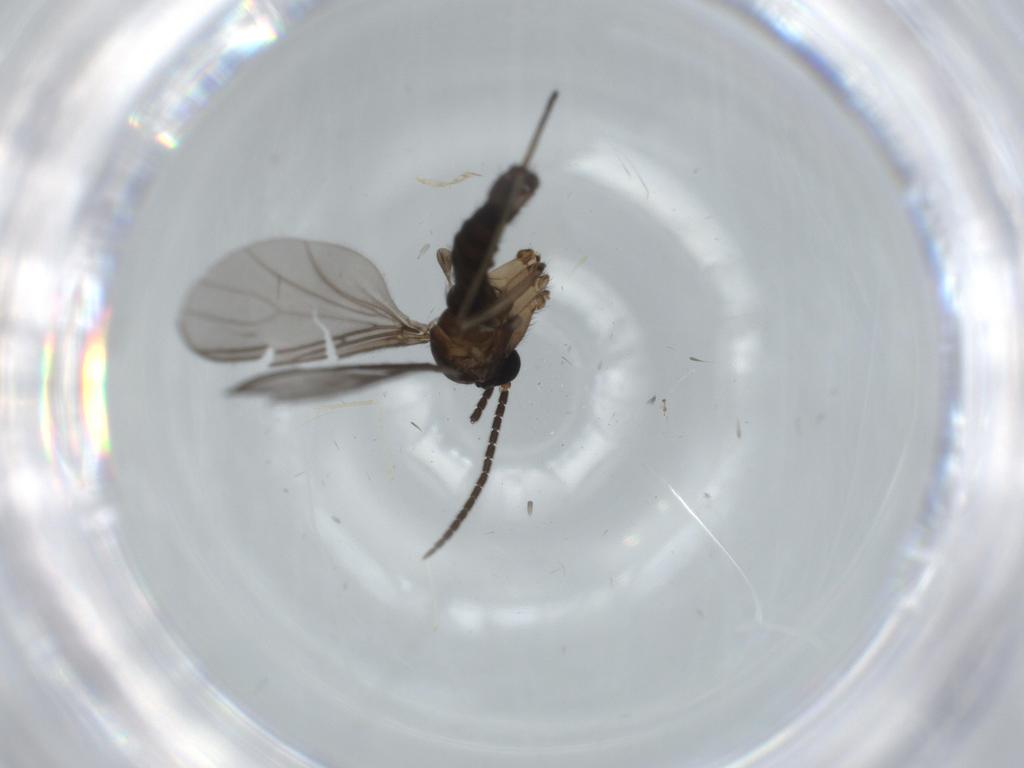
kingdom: Animalia
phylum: Arthropoda
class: Insecta
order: Diptera
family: Sciaridae
